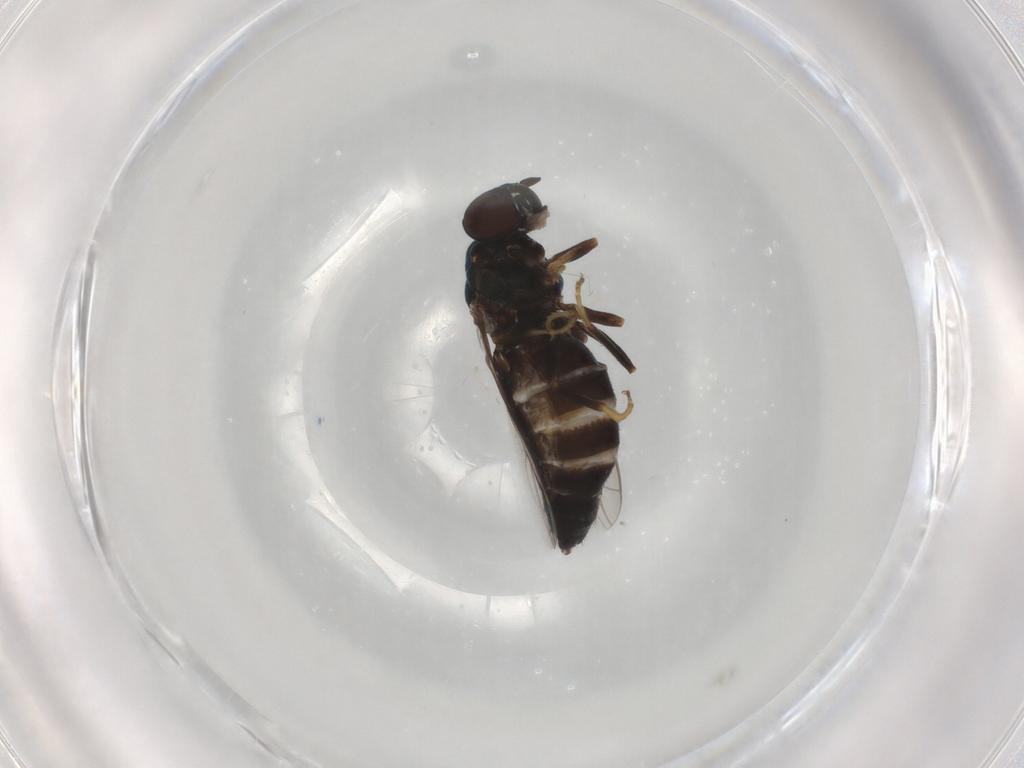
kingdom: Animalia
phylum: Arthropoda
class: Insecta
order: Diptera
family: Scenopinidae
